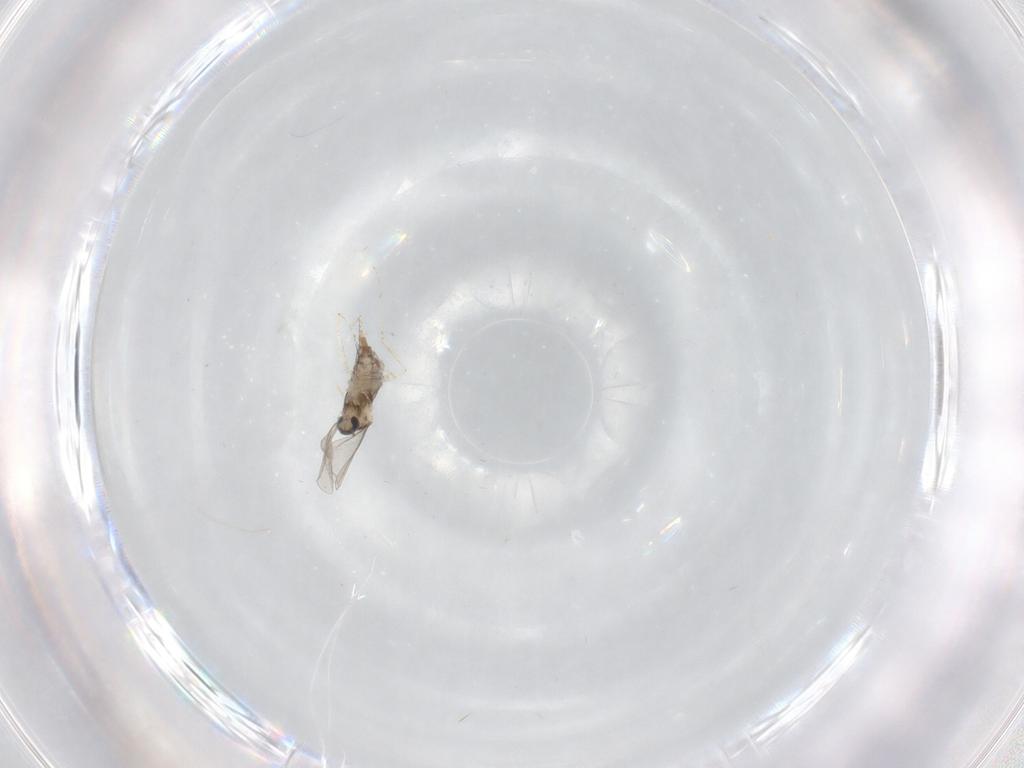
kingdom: Animalia
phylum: Arthropoda
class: Insecta
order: Diptera
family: Cecidomyiidae
